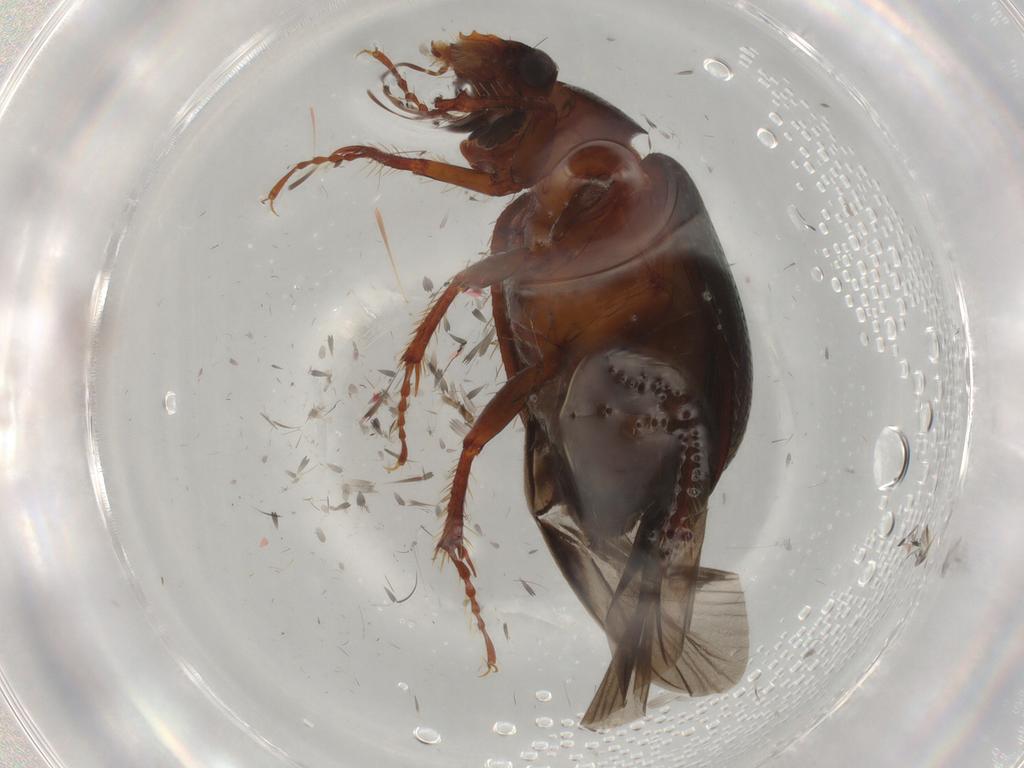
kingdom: Animalia
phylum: Arthropoda
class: Insecta
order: Coleoptera
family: Hybosoridae
